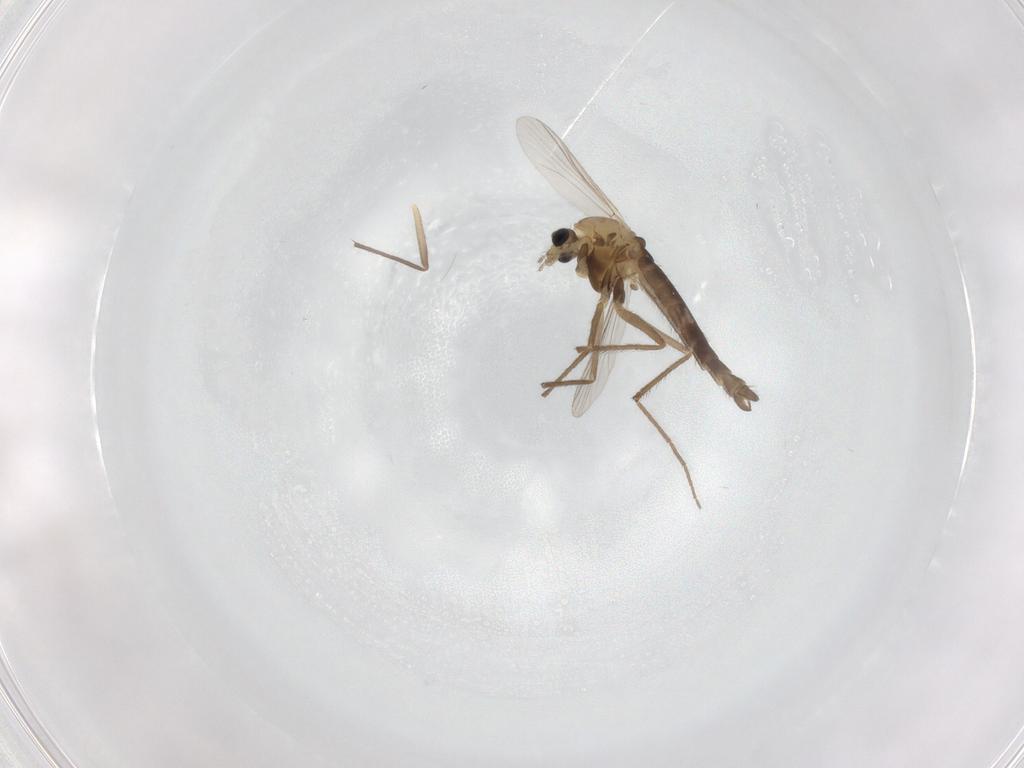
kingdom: Animalia
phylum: Arthropoda
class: Insecta
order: Diptera
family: Chironomidae
